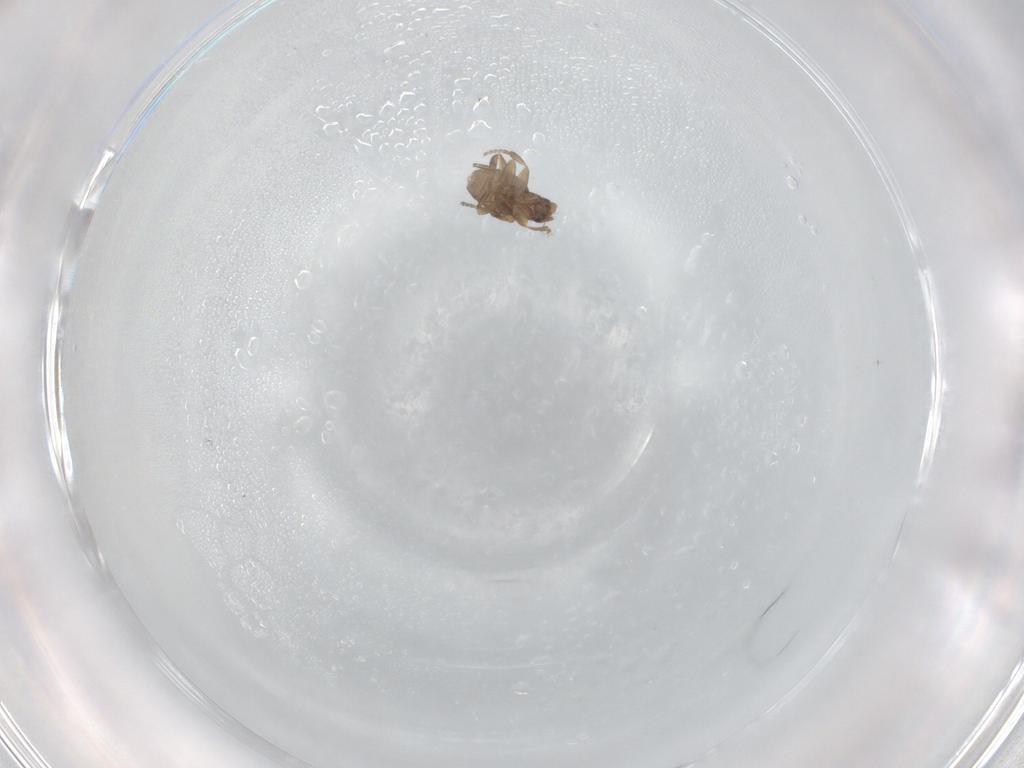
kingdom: Animalia
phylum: Arthropoda
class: Insecta
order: Diptera
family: Phoridae
